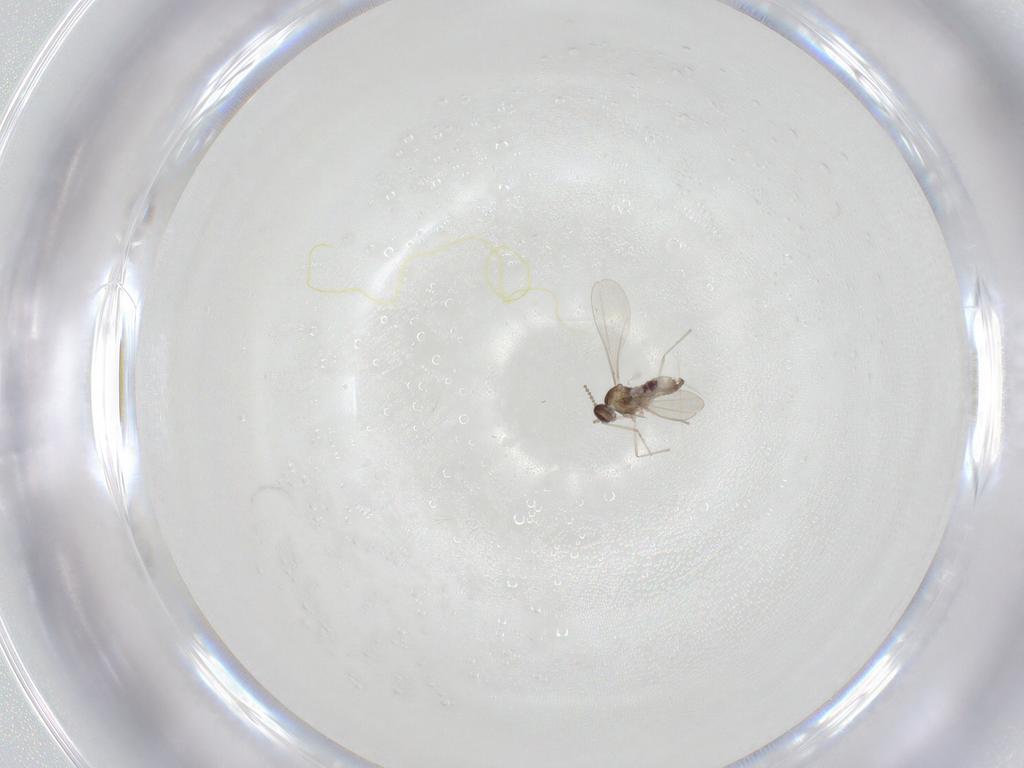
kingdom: Animalia
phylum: Arthropoda
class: Insecta
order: Diptera
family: Cecidomyiidae
